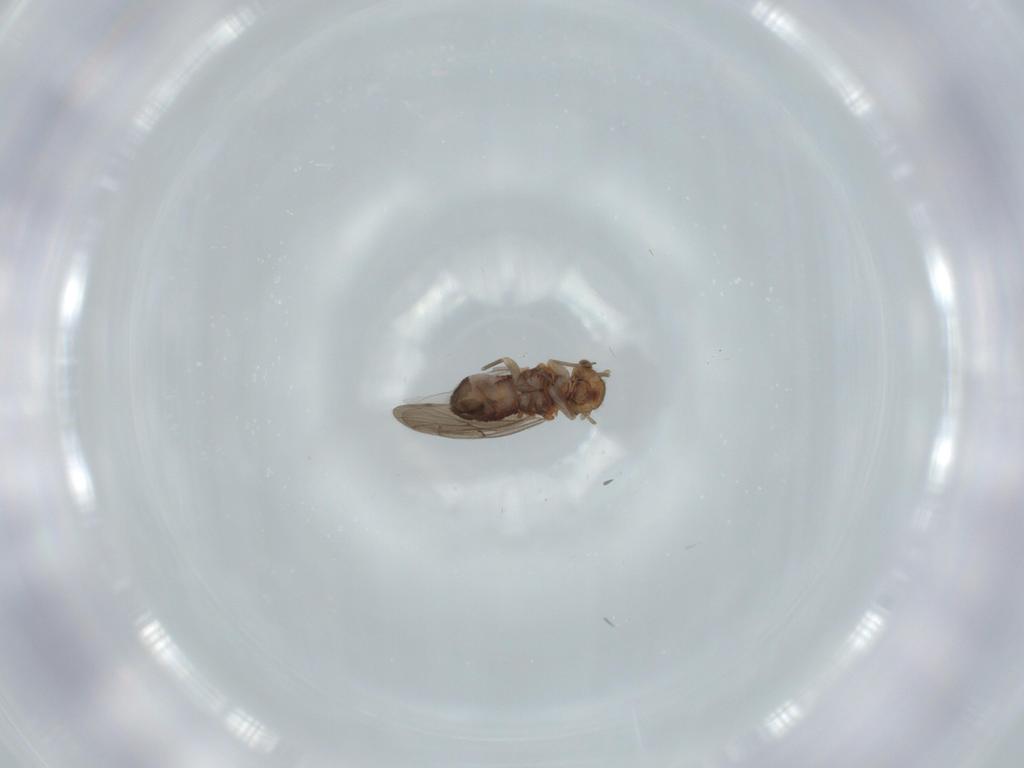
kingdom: Animalia
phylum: Arthropoda
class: Insecta
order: Psocodea
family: Ectopsocidae
